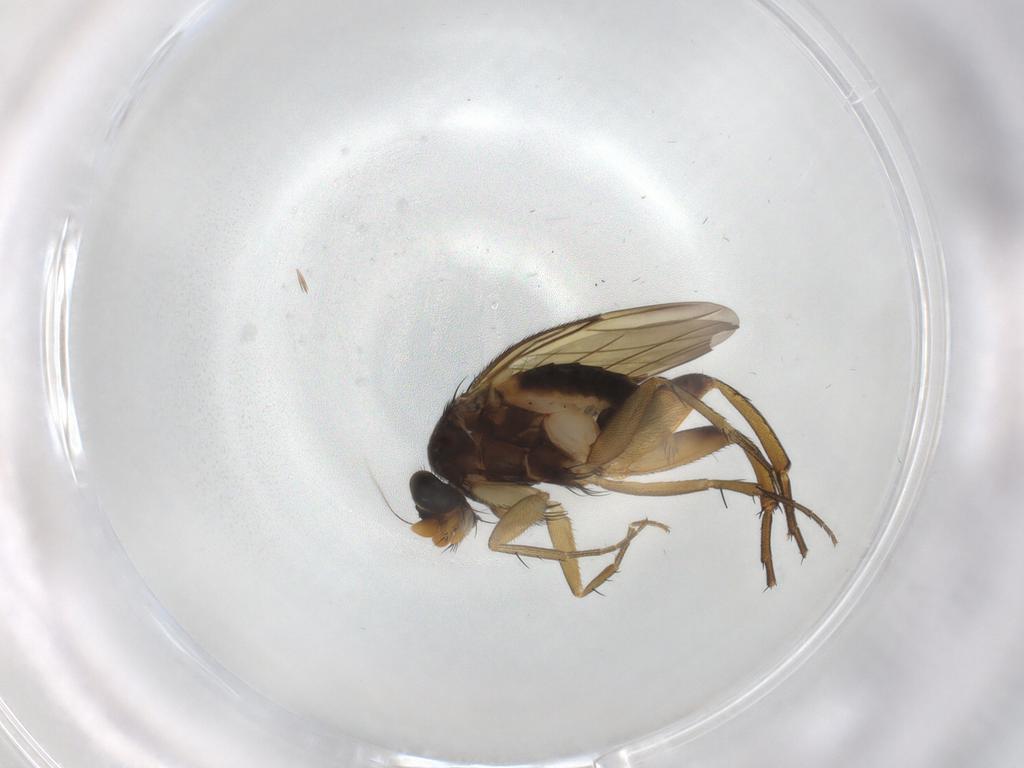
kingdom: Animalia
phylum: Arthropoda
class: Insecta
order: Diptera
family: Phoridae
